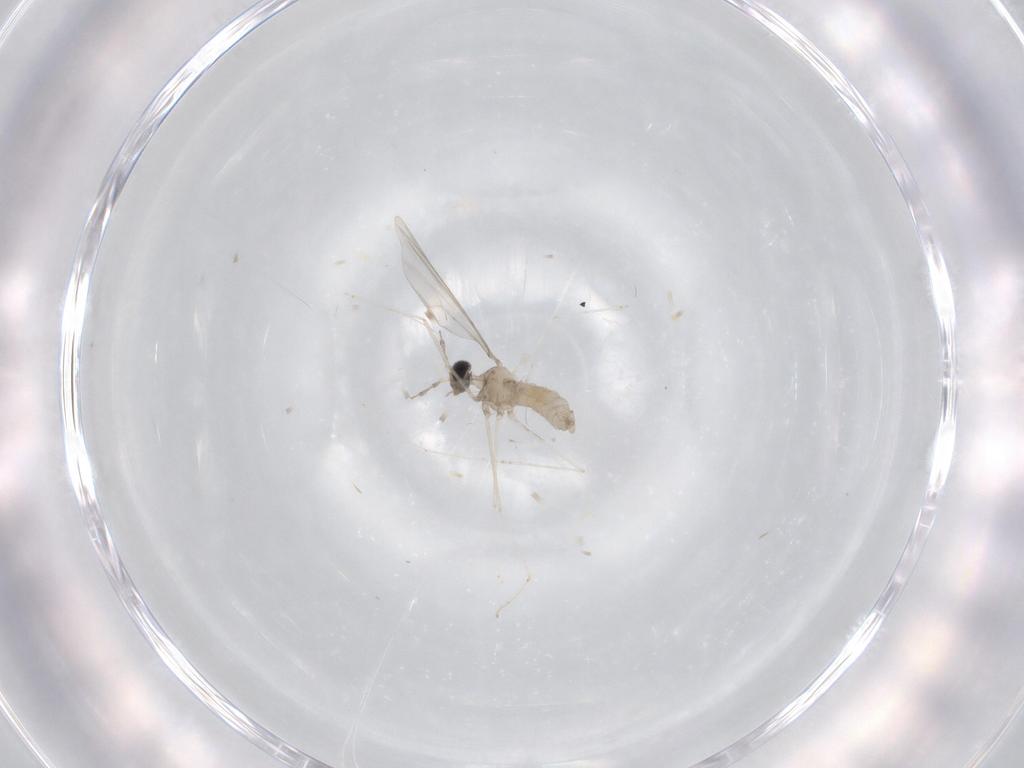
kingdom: Animalia
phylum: Arthropoda
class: Insecta
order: Diptera
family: Cecidomyiidae
